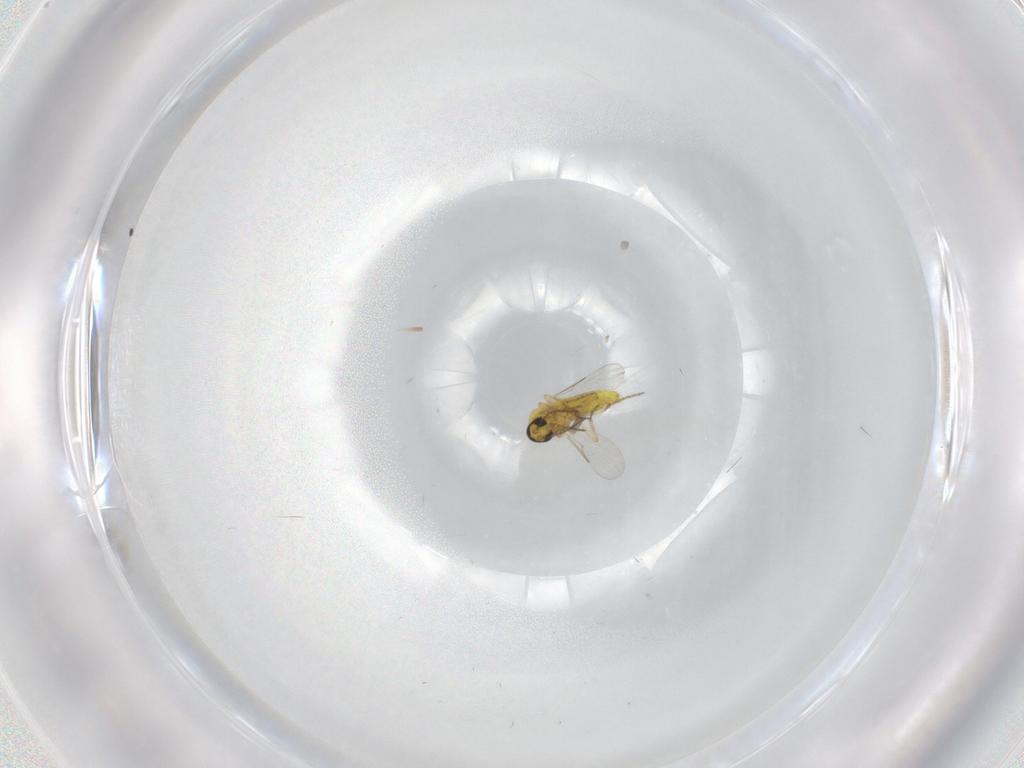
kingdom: Animalia
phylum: Arthropoda
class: Insecta
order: Diptera
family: Ceratopogonidae
